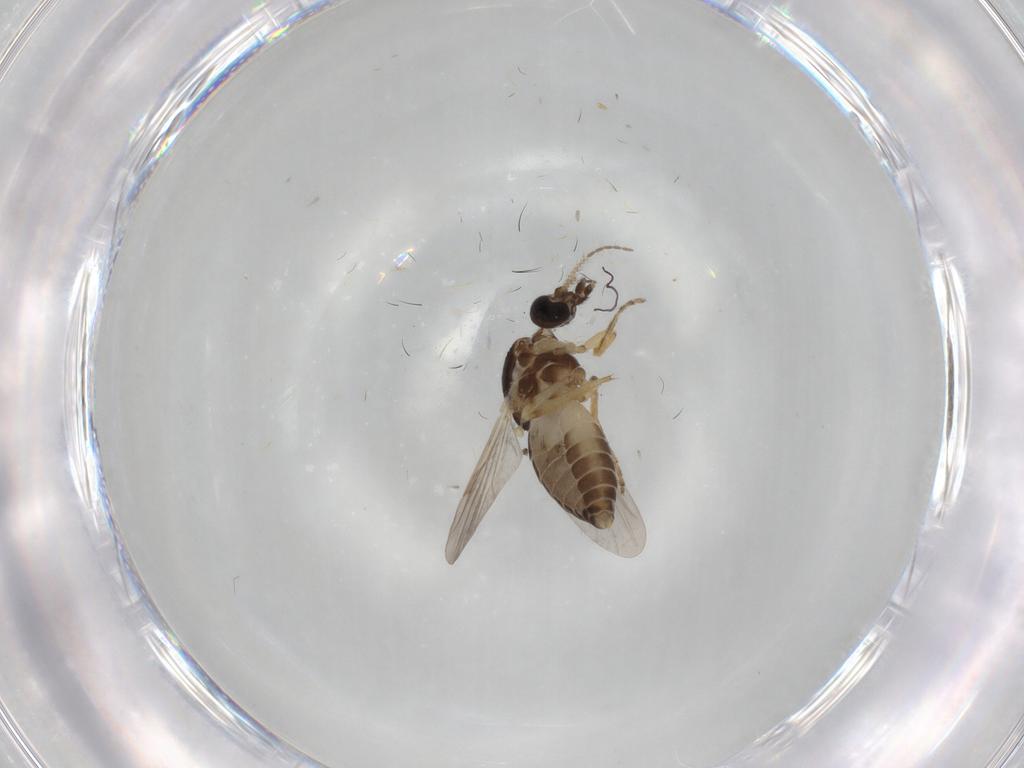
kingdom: Animalia
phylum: Arthropoda
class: Insecta
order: Diptera
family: Ceratopogonidae
